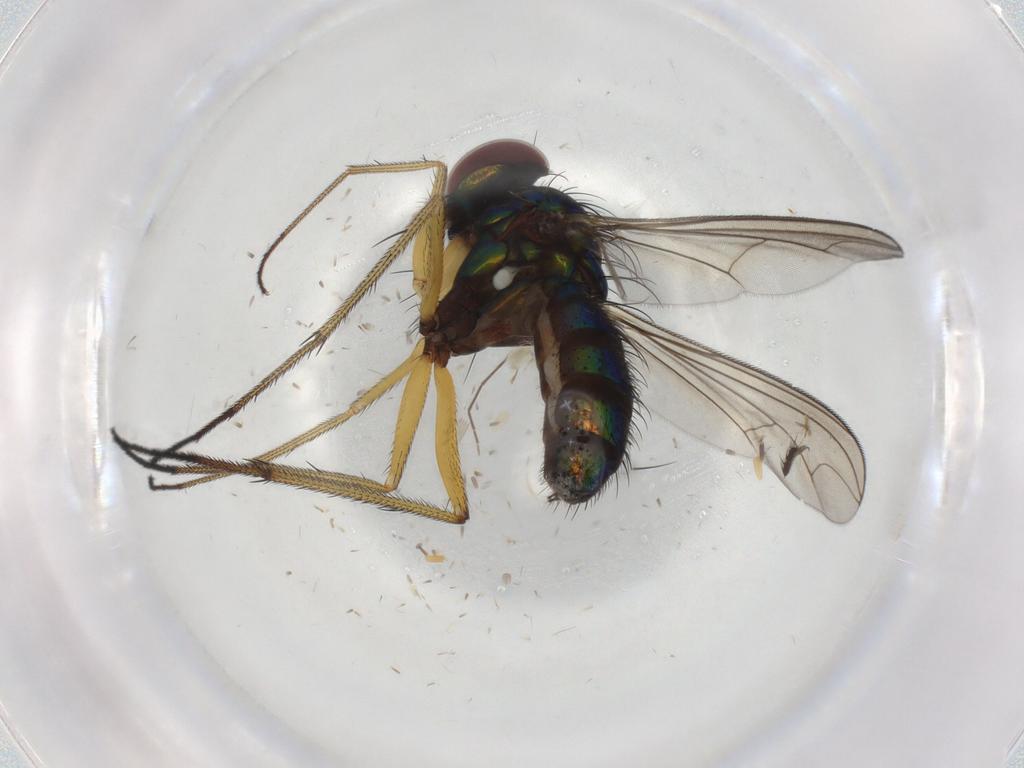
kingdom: Animalia
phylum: Arthropoda
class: Insecta
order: Diptera
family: Dolichopodidae
